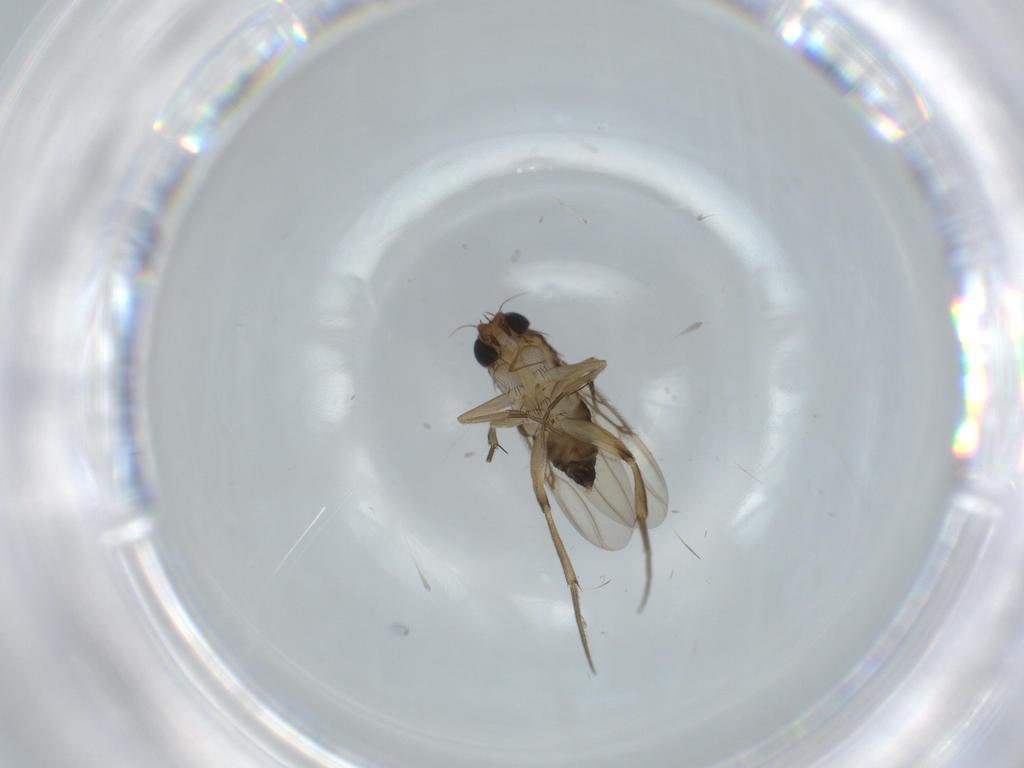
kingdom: Animalia
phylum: Arthropoda
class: Insecta
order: Diptera
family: Phoridae
